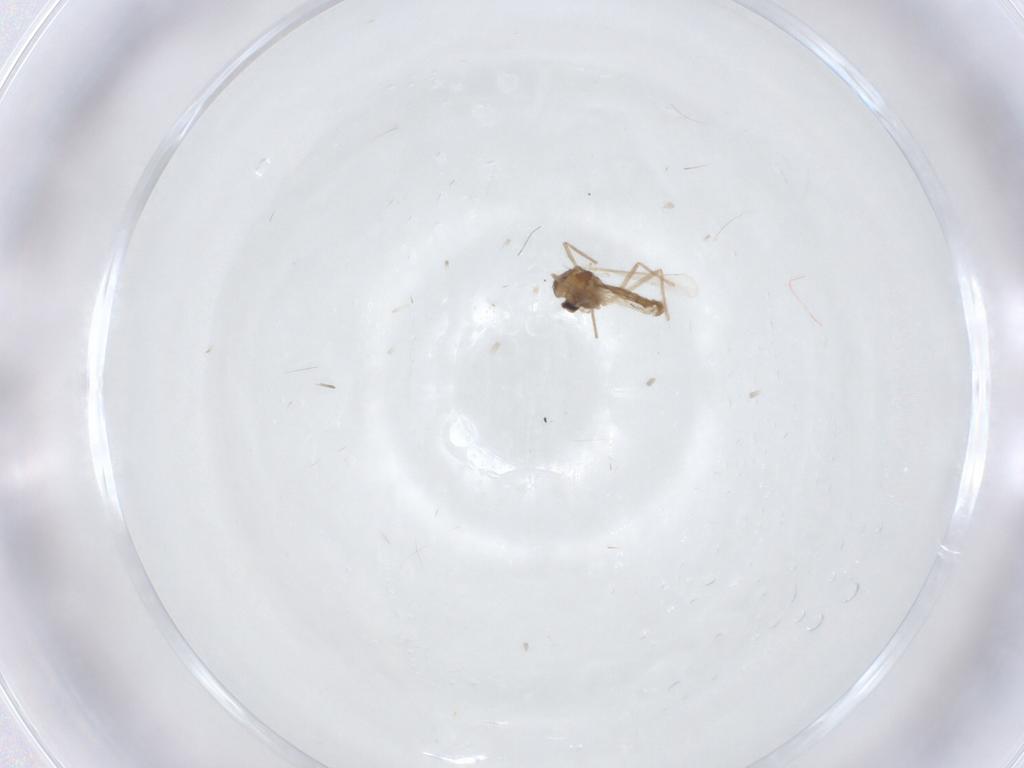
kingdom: Animalia
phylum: Arthropoda
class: Insecta
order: Diptera
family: Chironomidae
